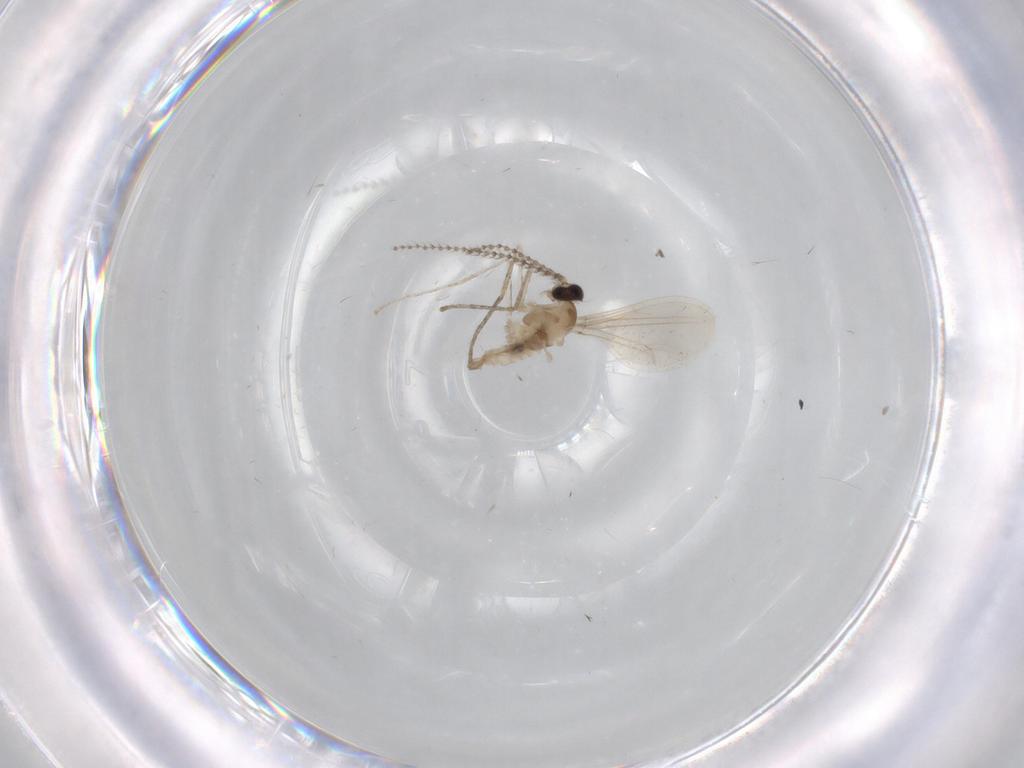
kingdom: Animalia
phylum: Arthropoda
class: Insecta
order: Diptera
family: Cecidomyiidae
